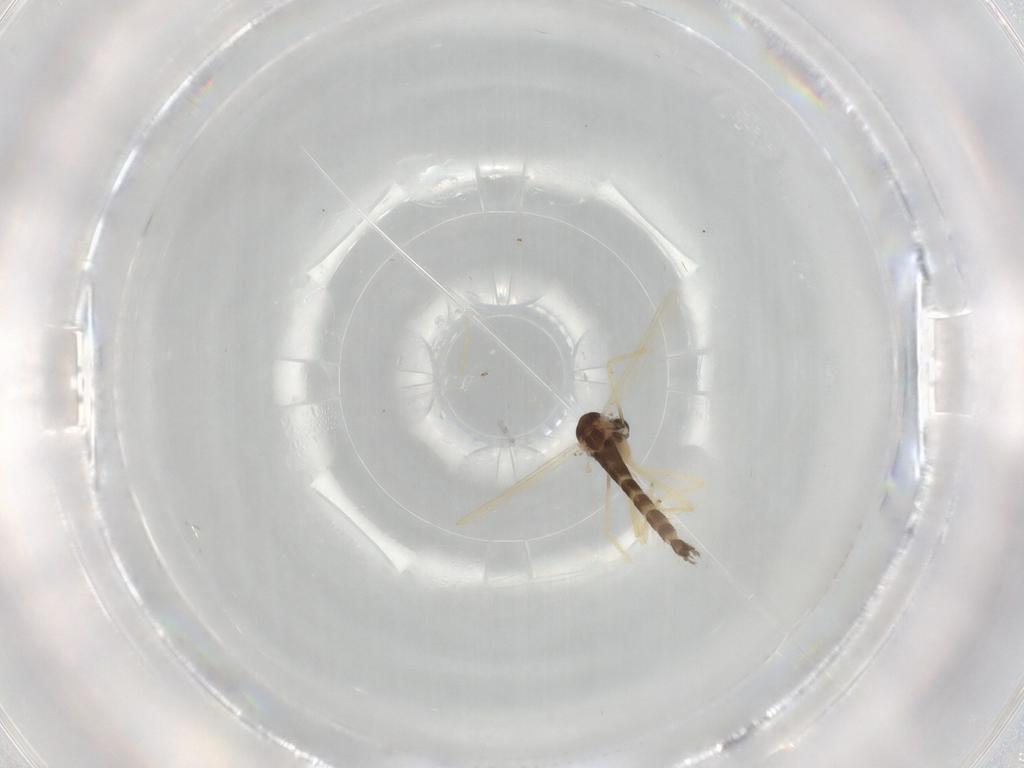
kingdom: Animalia
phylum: Arthropoda
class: Insecta
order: Diptera
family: Chironomidae
